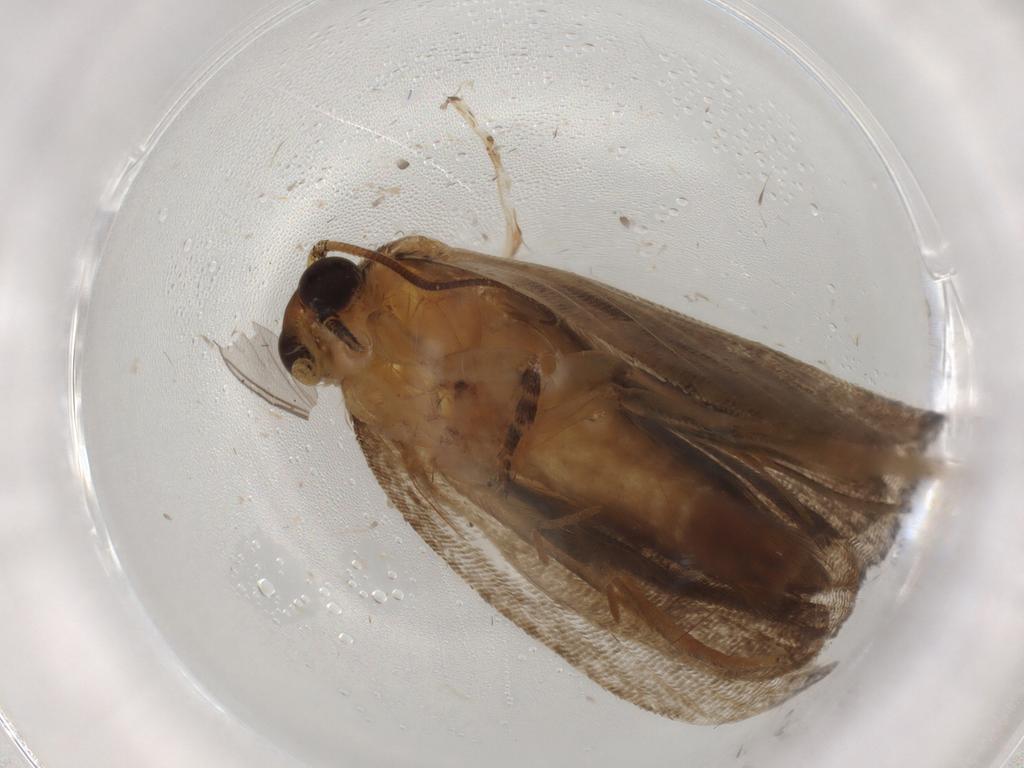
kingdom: Animalia
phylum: Arthropoda
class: Insecta
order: Lepidoptera
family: Tortricidae
